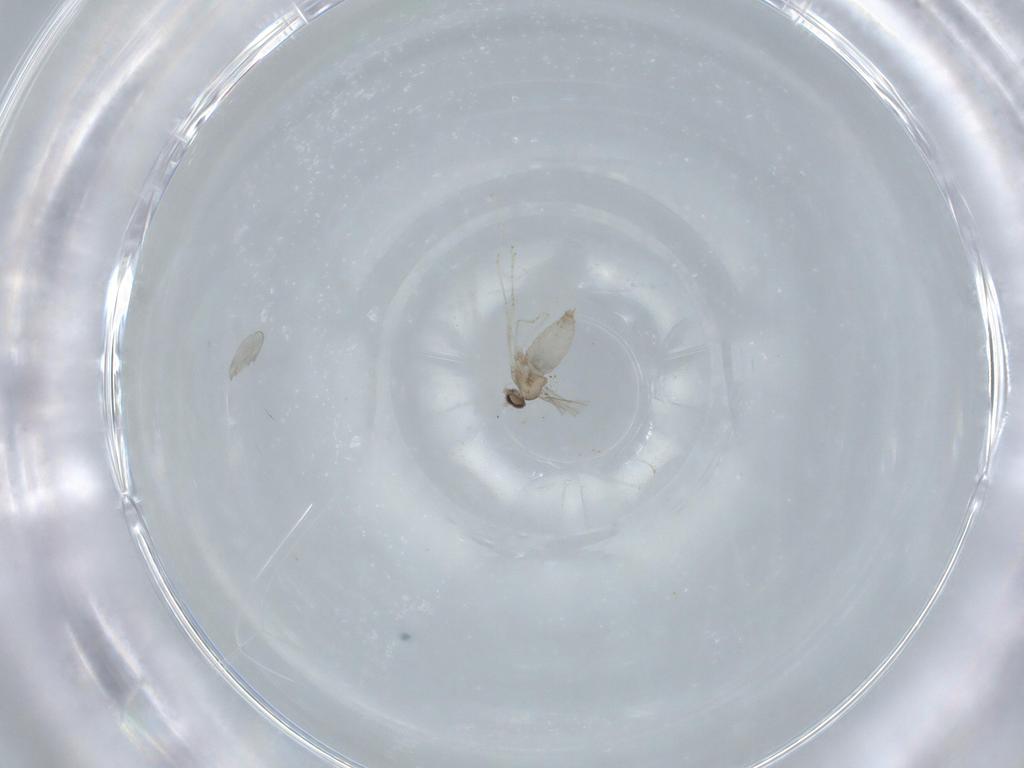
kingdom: Animalia
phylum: Arthropoda
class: Insecta
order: Diptera
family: Cecidomyiidae
